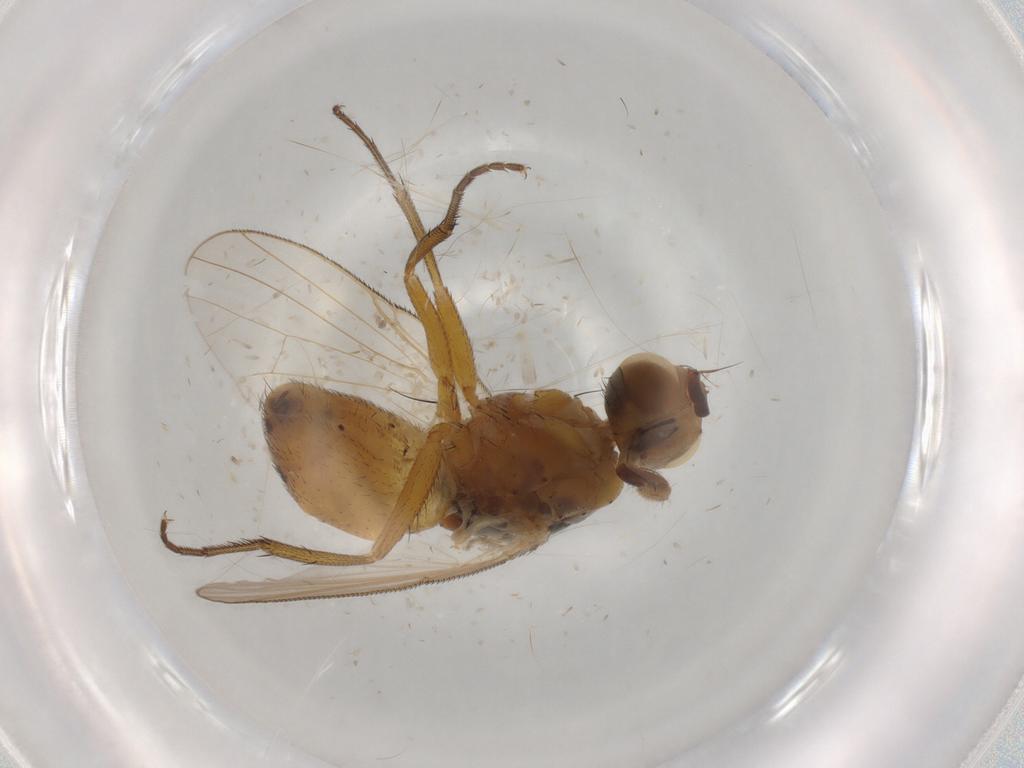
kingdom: Animalia
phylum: Arthropoda
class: Insecta
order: Diptera
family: Muscidae
